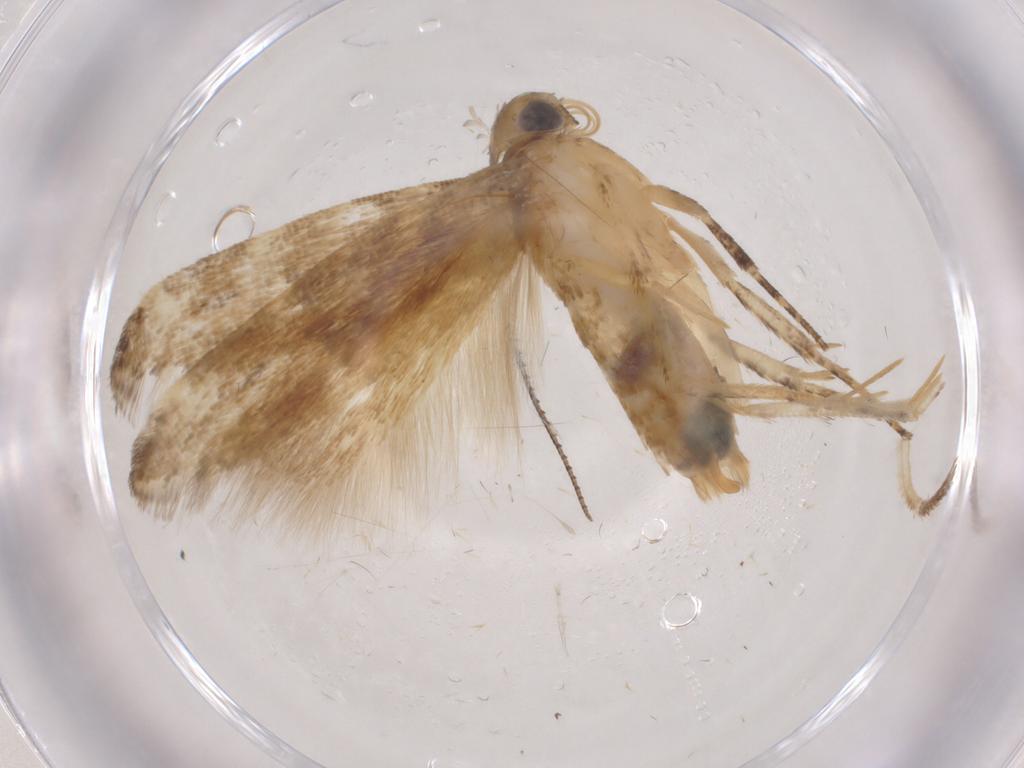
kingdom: Animalia
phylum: Arthropoda
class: Insecta
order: Lepidoptera
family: Gelechiidae
